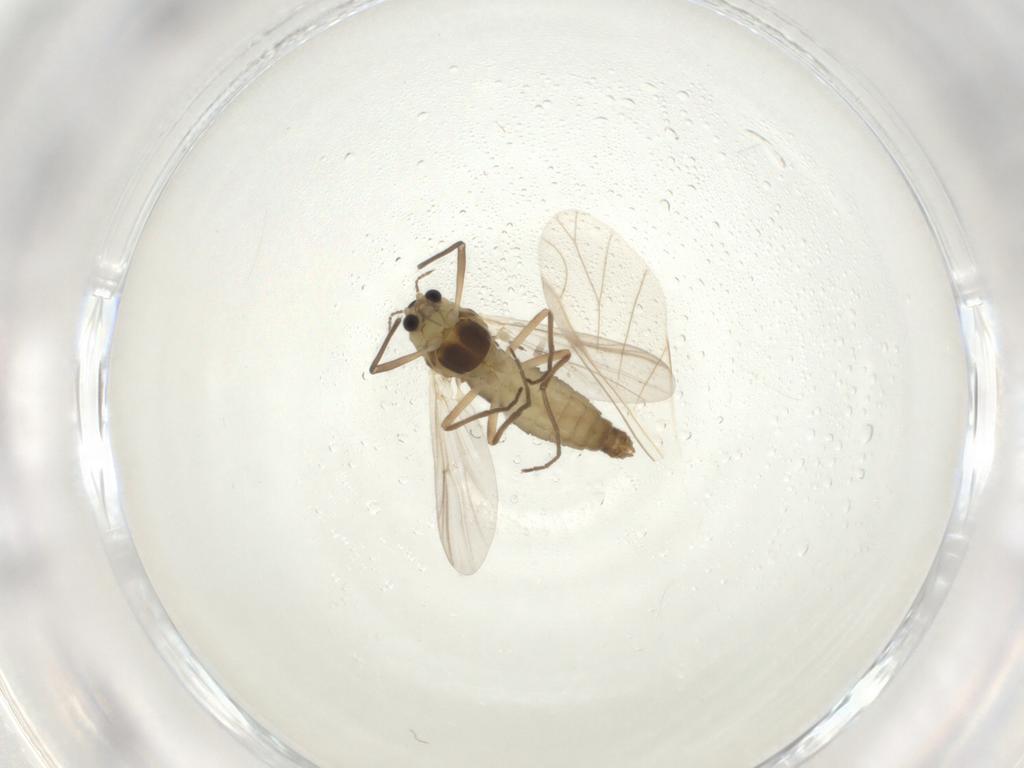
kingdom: Animalia
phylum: Arthropoda
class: Insecta
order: Diptera
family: Chironomidae
